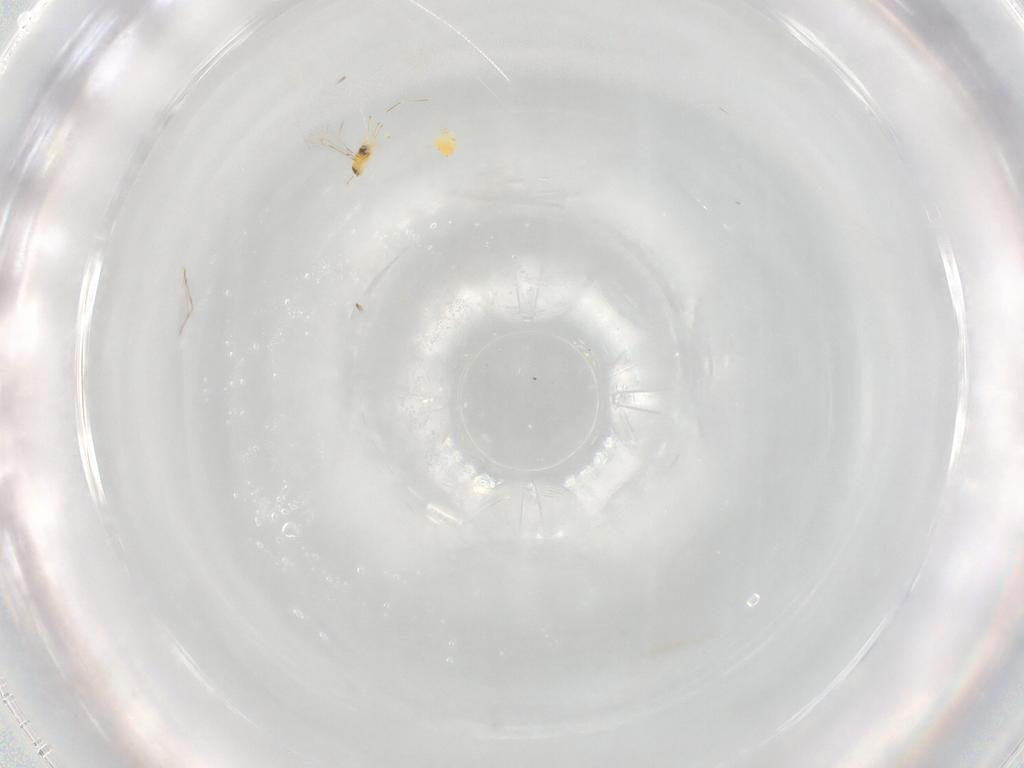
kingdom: Animalia
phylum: Arthropoda
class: Insecta
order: Hymenoptera
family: Eulophidae
